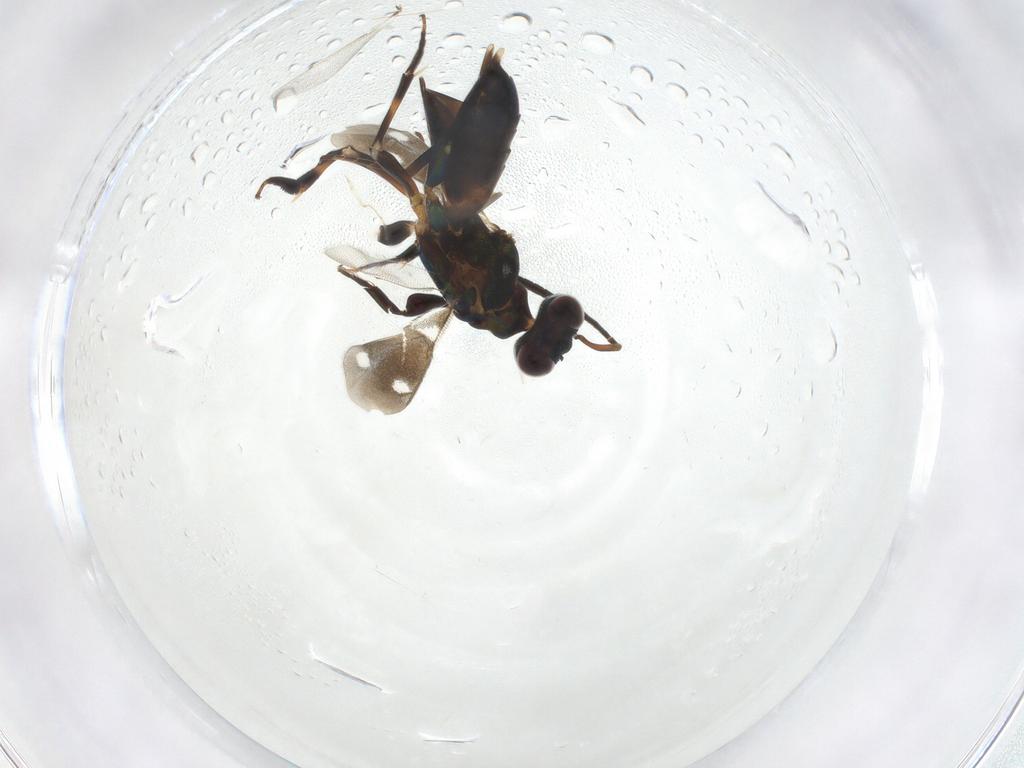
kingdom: Animalia
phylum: Arthropoda
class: Insecta
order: Hymenoptera
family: Eupelmidae
